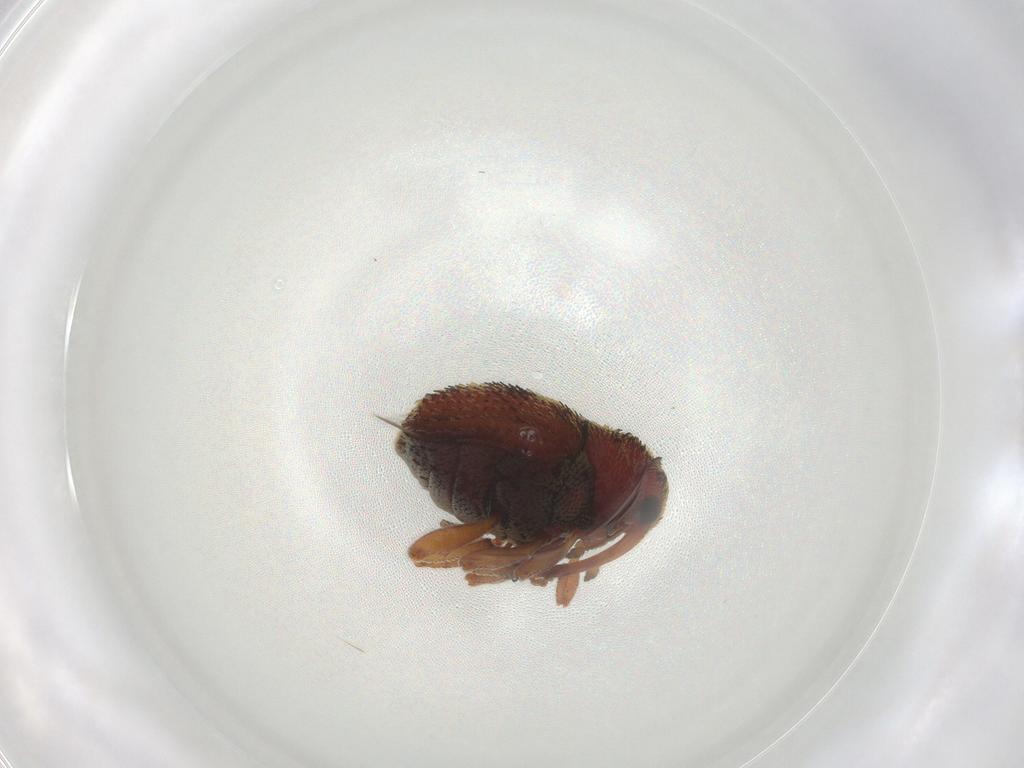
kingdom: Animalia
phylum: Arthropoda
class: Insecta
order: Coleoptera
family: Curculionidae
